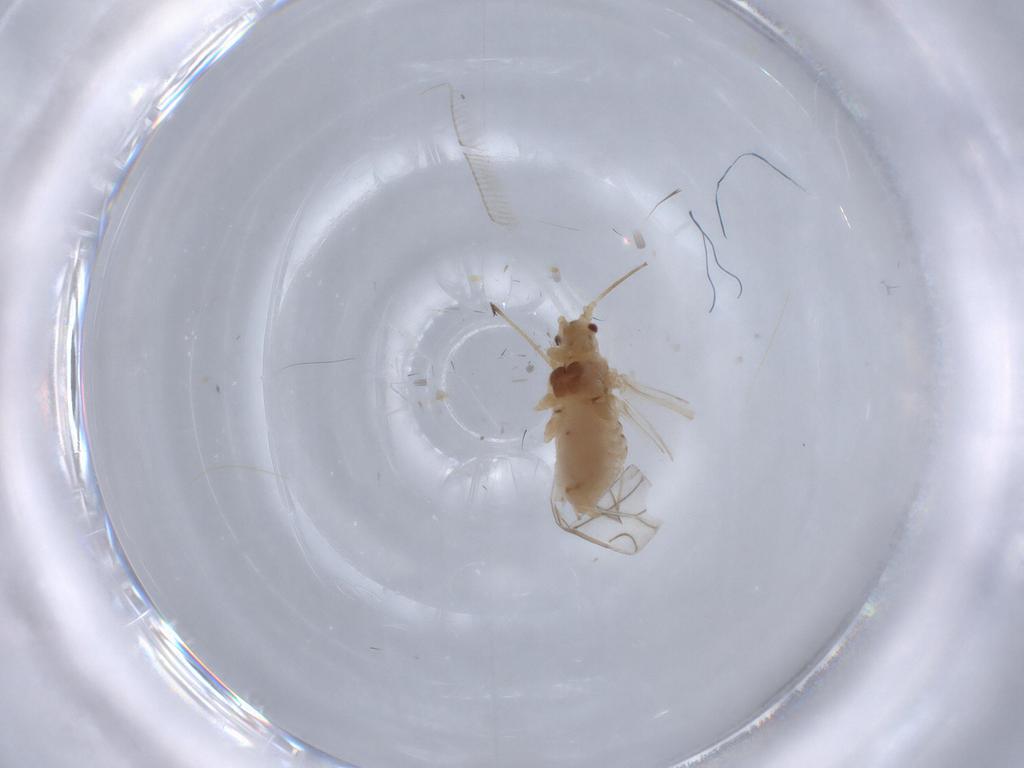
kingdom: Animalia
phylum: Arthropoda
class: Insecta
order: Hemiptera
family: Aphididae
